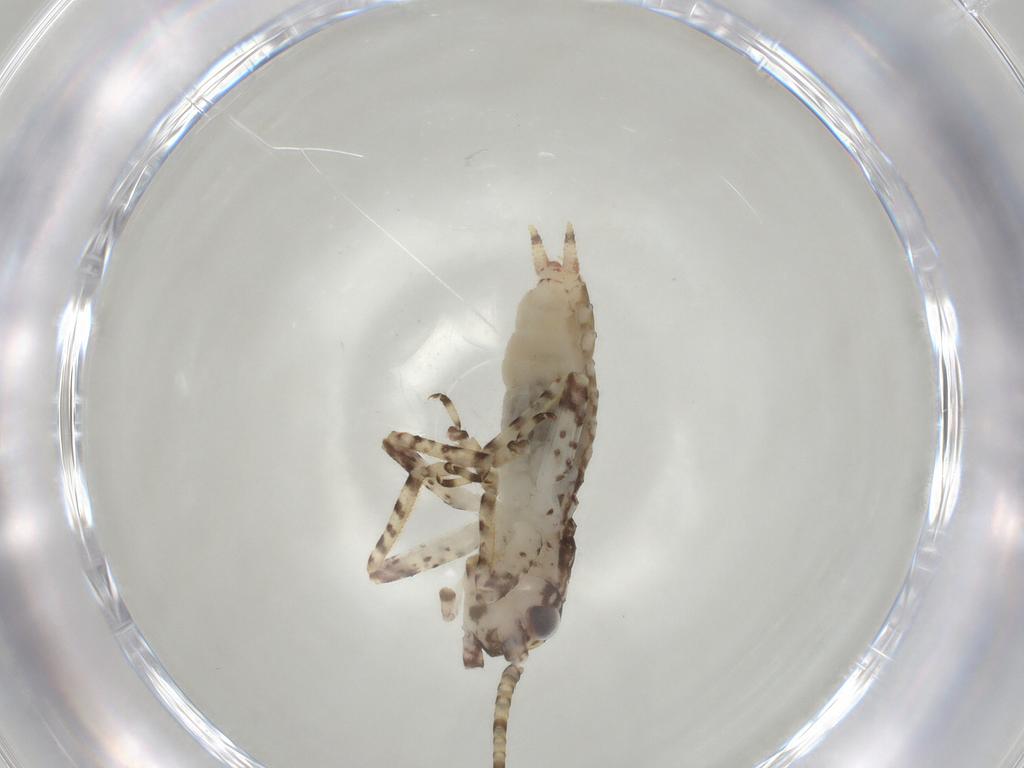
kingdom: Animalia
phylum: Arthropoda
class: Insecta
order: Orthoptera
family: Gryllidae
